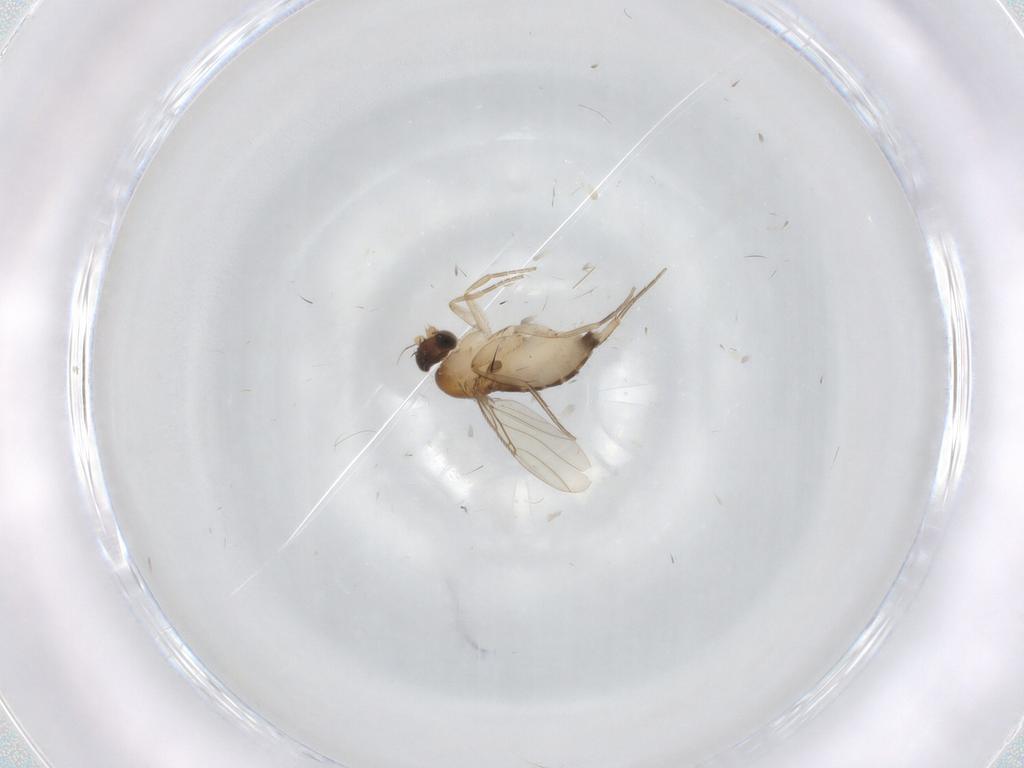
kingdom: Animalia
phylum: Arthropoda
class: Insecta
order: Diptera
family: Phoridae
